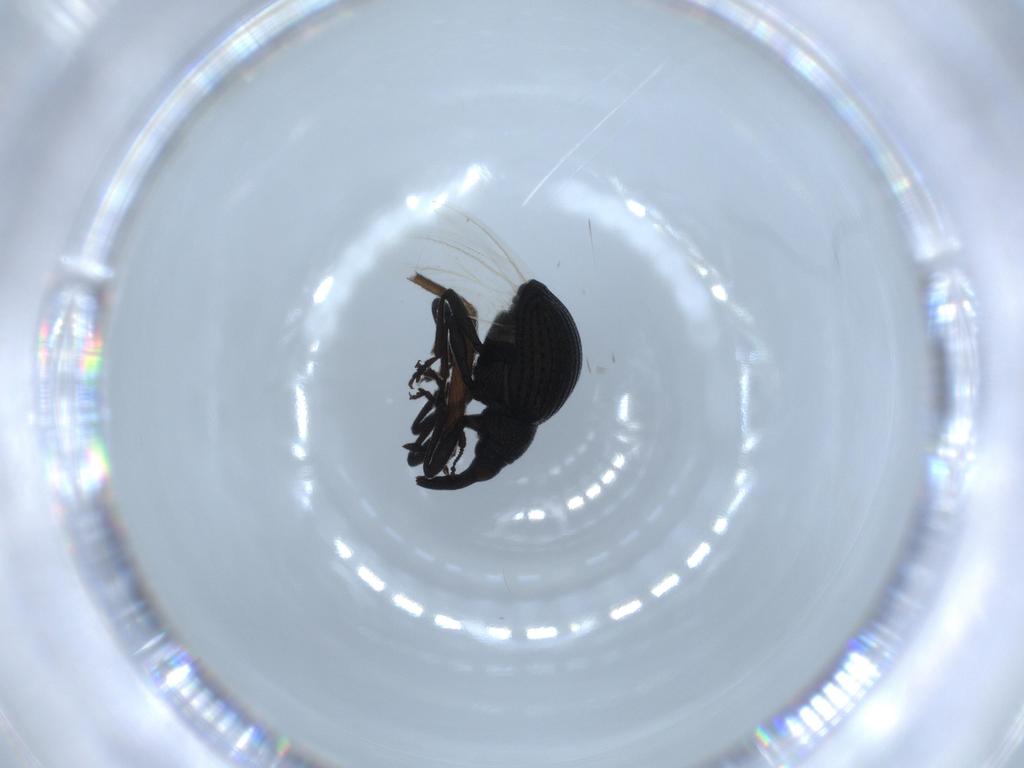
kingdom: Animalia
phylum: Arthropoda
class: Insecta
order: Coleoptera
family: Brentidae
